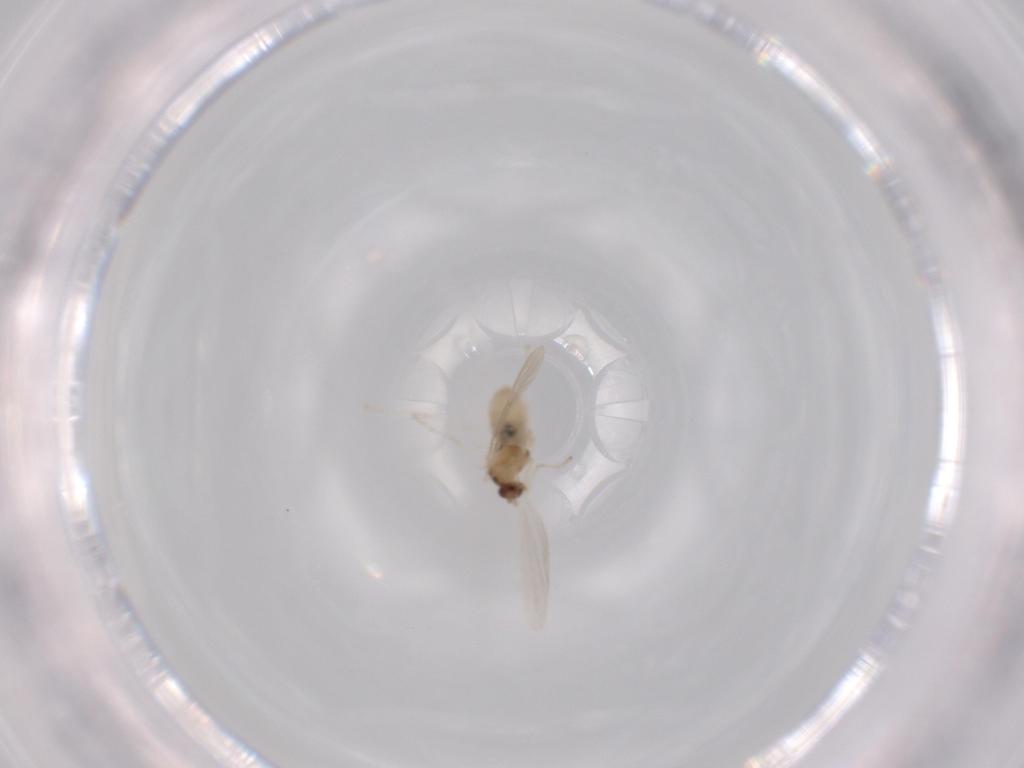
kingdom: Animalia
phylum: Arthropoda
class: Insecta
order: Diptera
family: Cecidomyiidae
